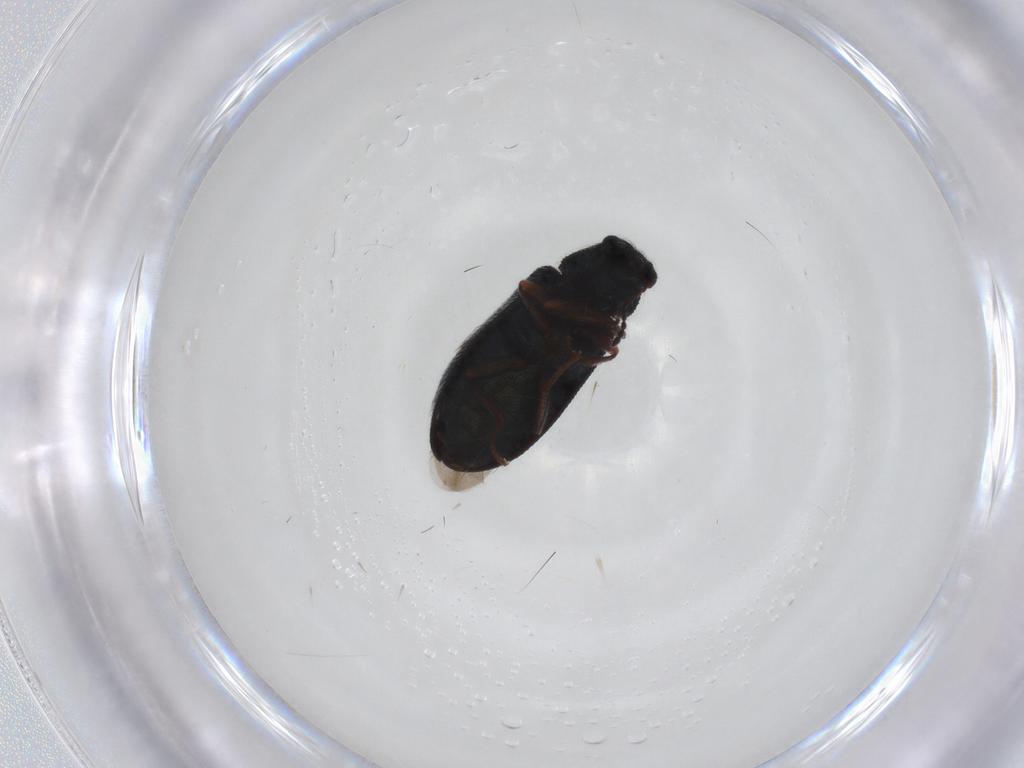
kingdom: Animalia
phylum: Arthropoda
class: Insecta
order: Coleoptera
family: Melyridae
